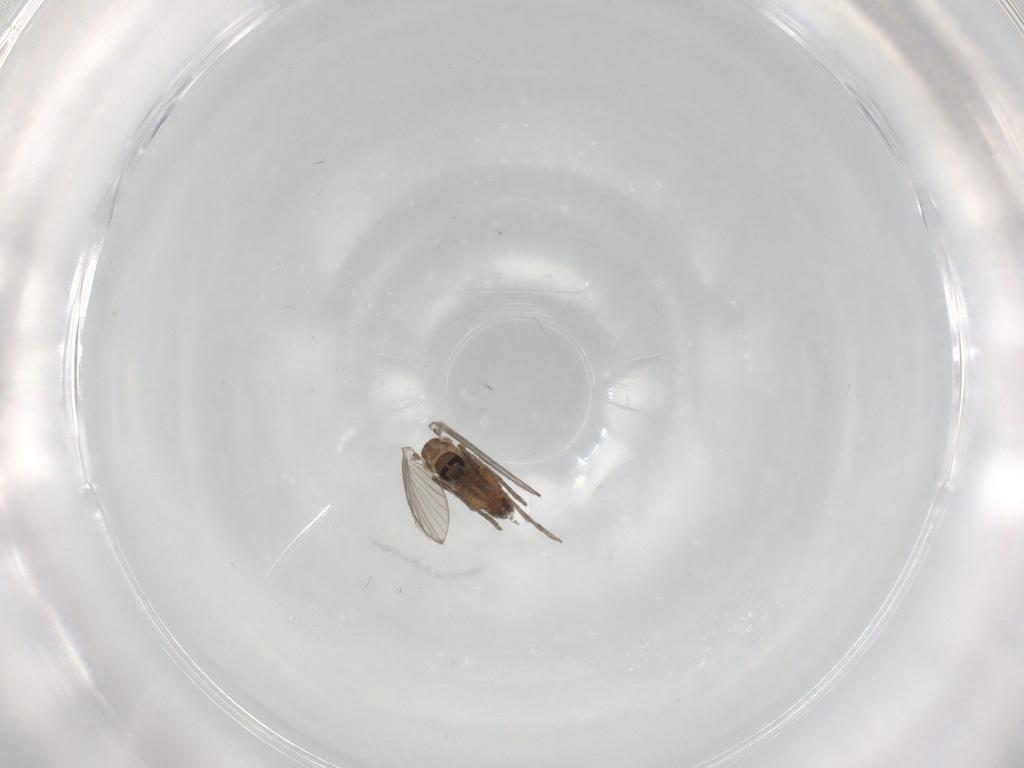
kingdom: Animalia
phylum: Arthropoda
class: Insecta
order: Diptera
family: Psychodidae
